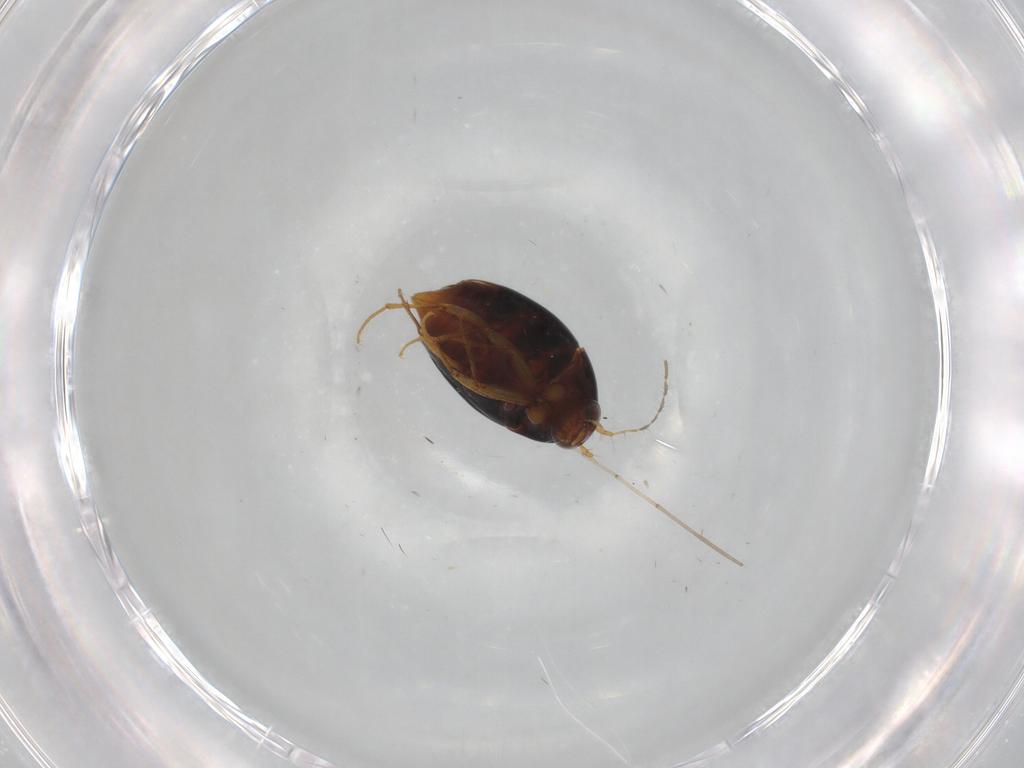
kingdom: Animalia
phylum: Arthropoda
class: Insecta
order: Coleoptera
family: Staphylinidae
